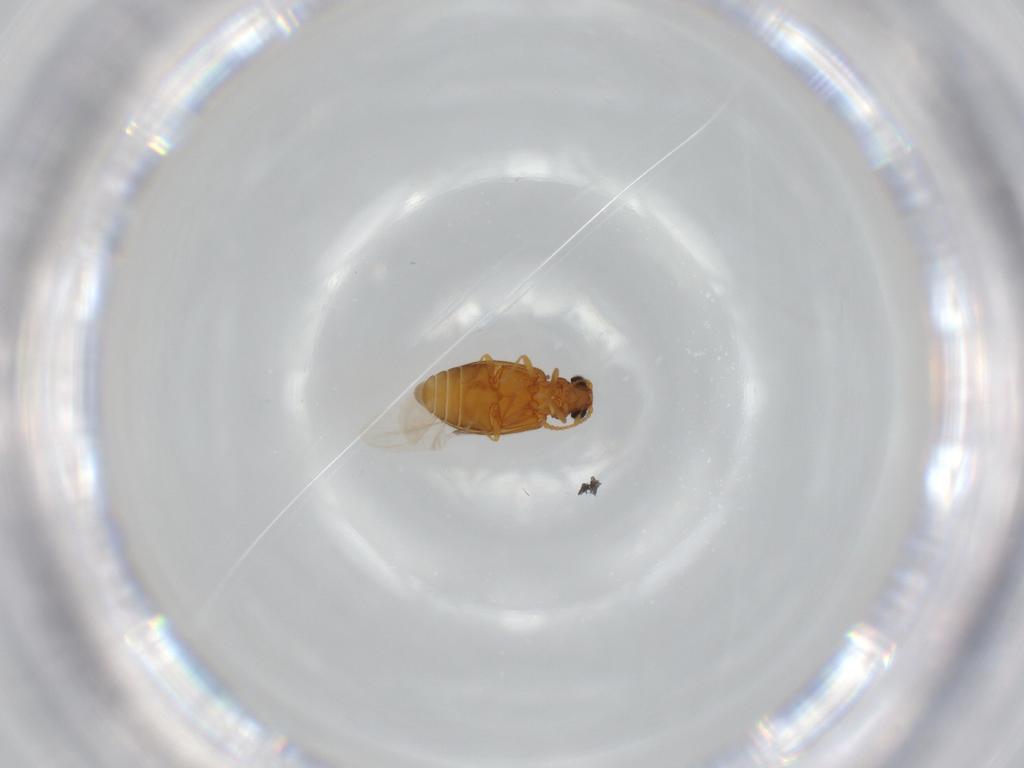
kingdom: Animalia
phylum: Arthropoda
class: Insecta
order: Coleoptera
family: Aderidae
